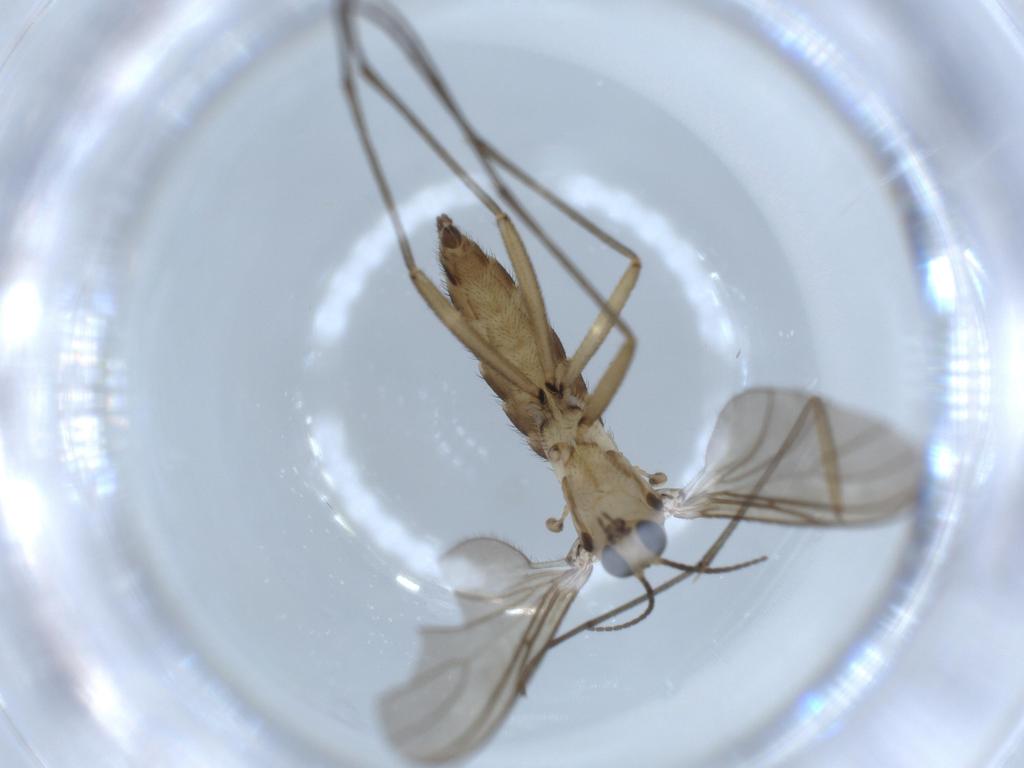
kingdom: Animalia
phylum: Arthropoda
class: Insecta
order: Diptera
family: Sciaridae
